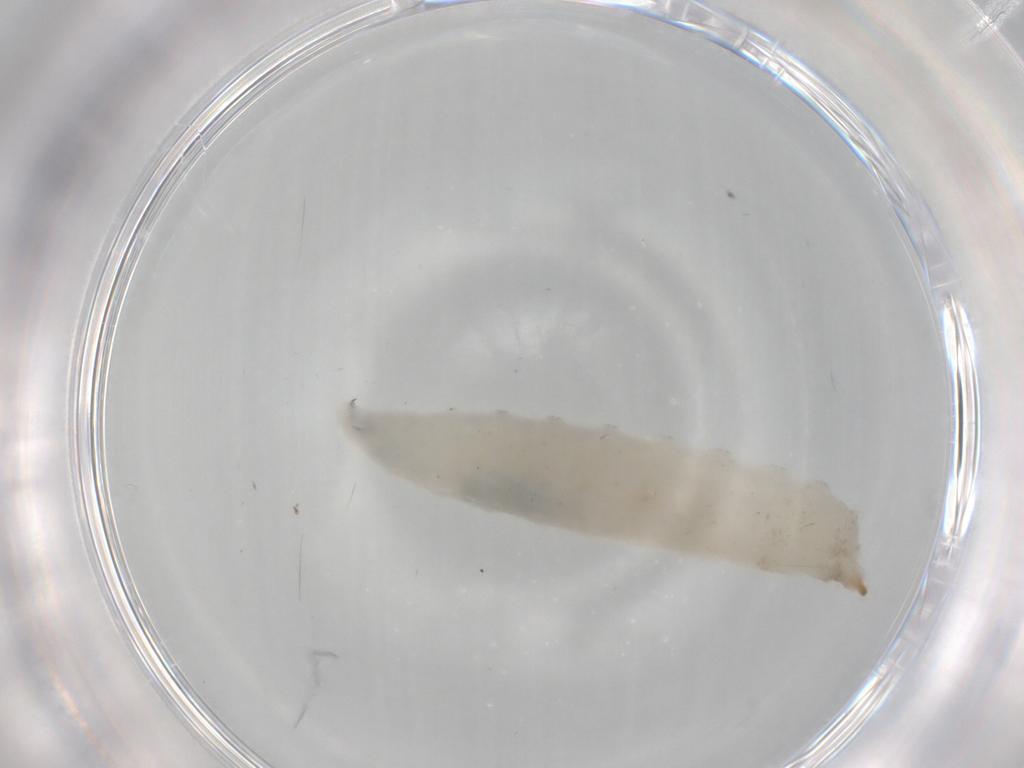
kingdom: Animalia
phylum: Arthropoda
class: Insecta
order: Diptera
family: Drosophilidae
